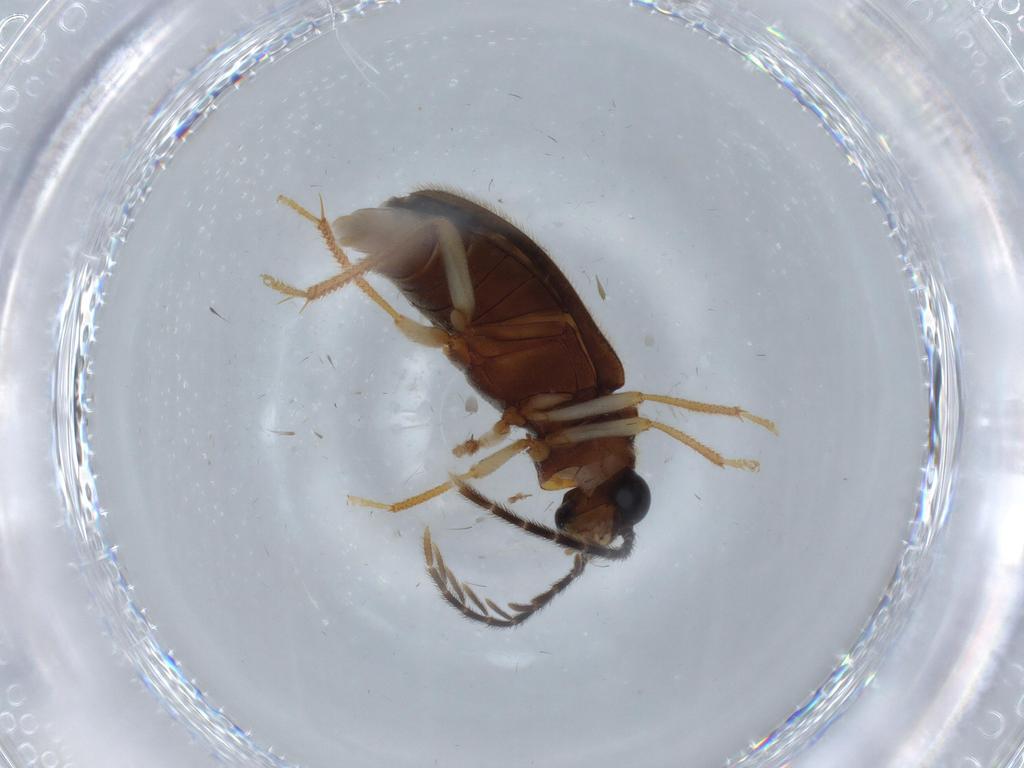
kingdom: Animalia
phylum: Arthropoda
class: Insecta
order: Coleoptera
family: Ptilodactylidae
